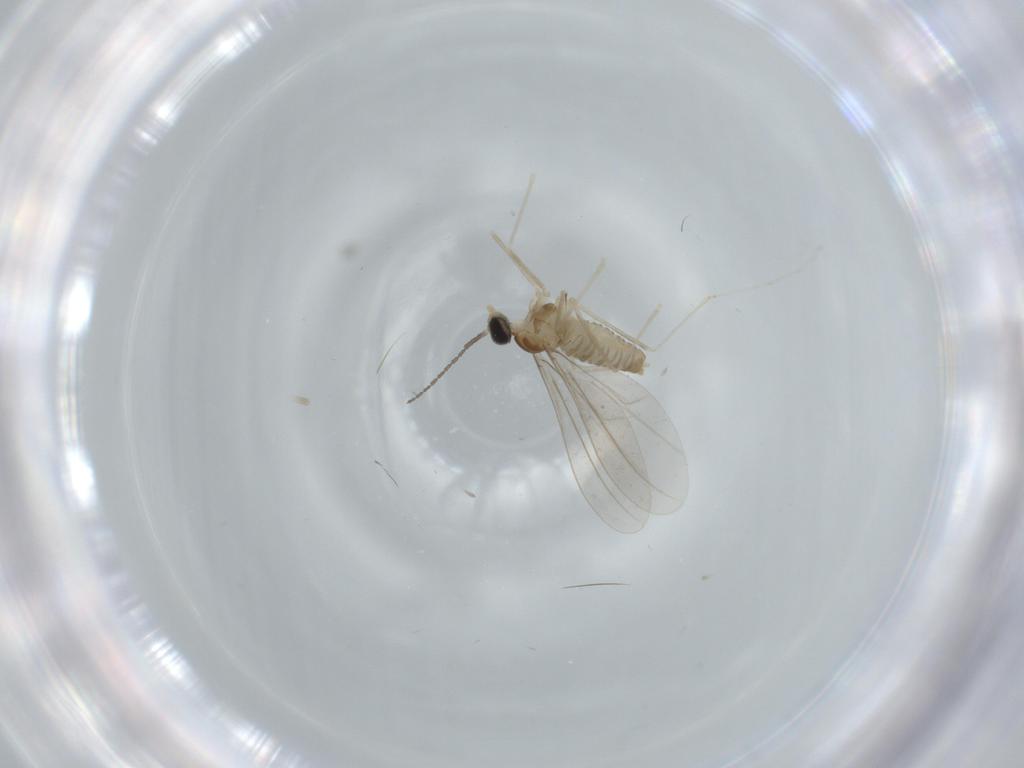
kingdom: Animalia
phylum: Arthropoda
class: Insecta
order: Diptera
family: Cecidomyiidae
